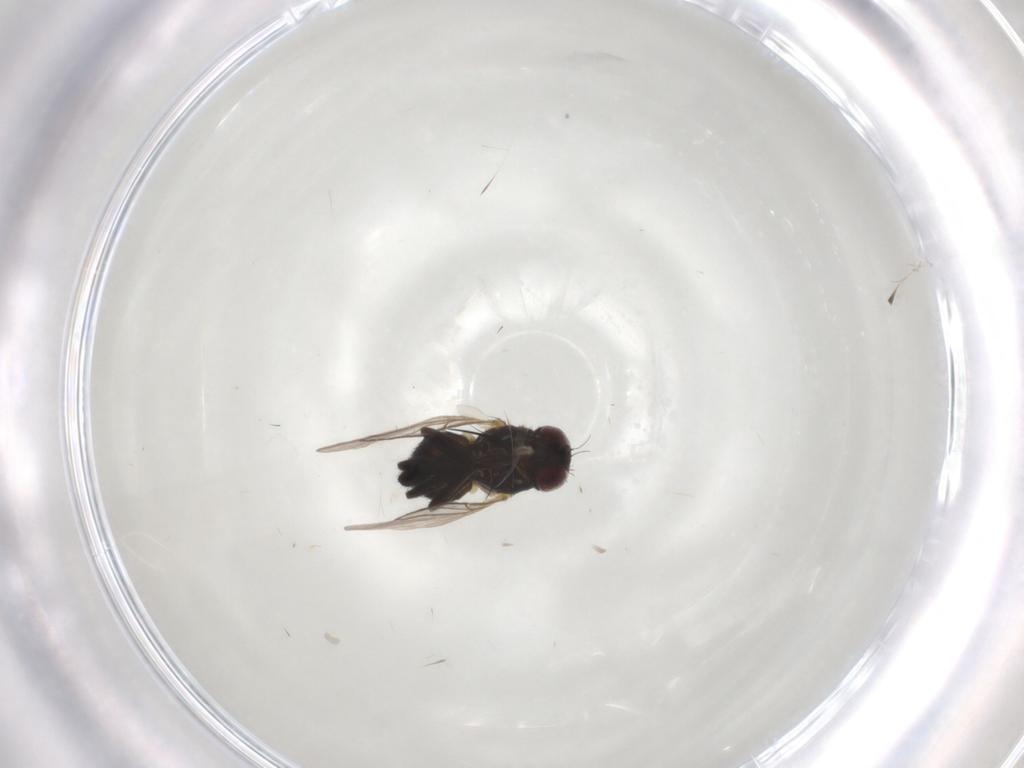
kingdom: Animalia
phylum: Arthropoda
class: Insecta
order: Diptera
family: Agromyzidae
